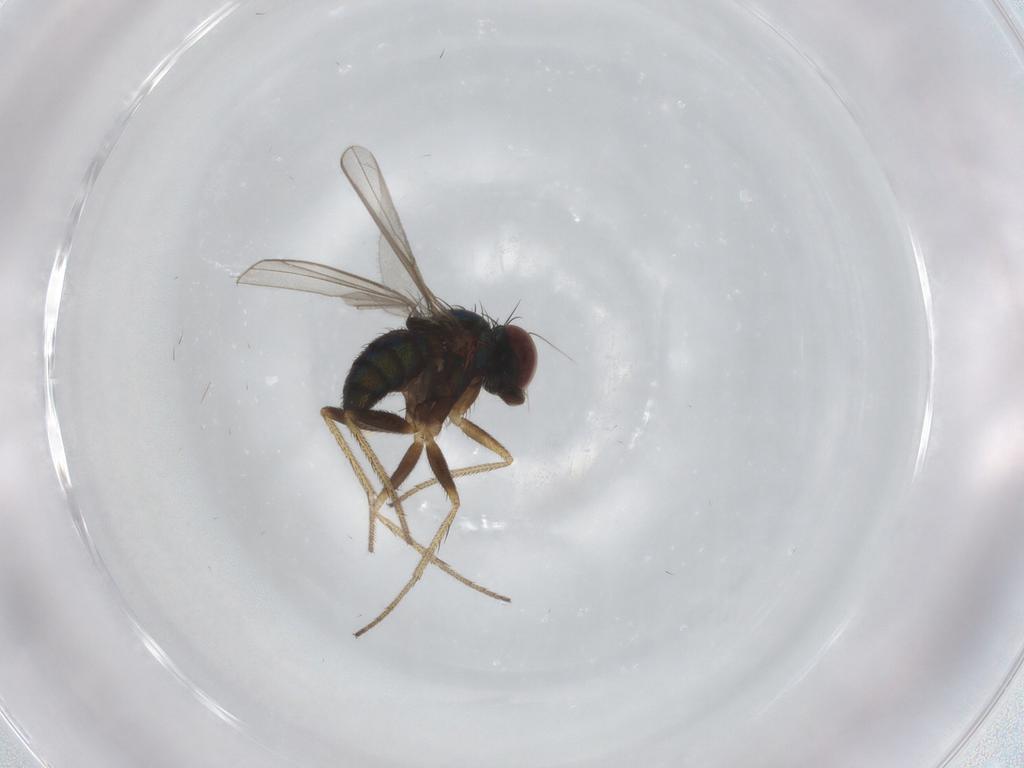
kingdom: Animalia
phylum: Arthropoda
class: Insecta
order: Diptera
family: Dolichopodidae
